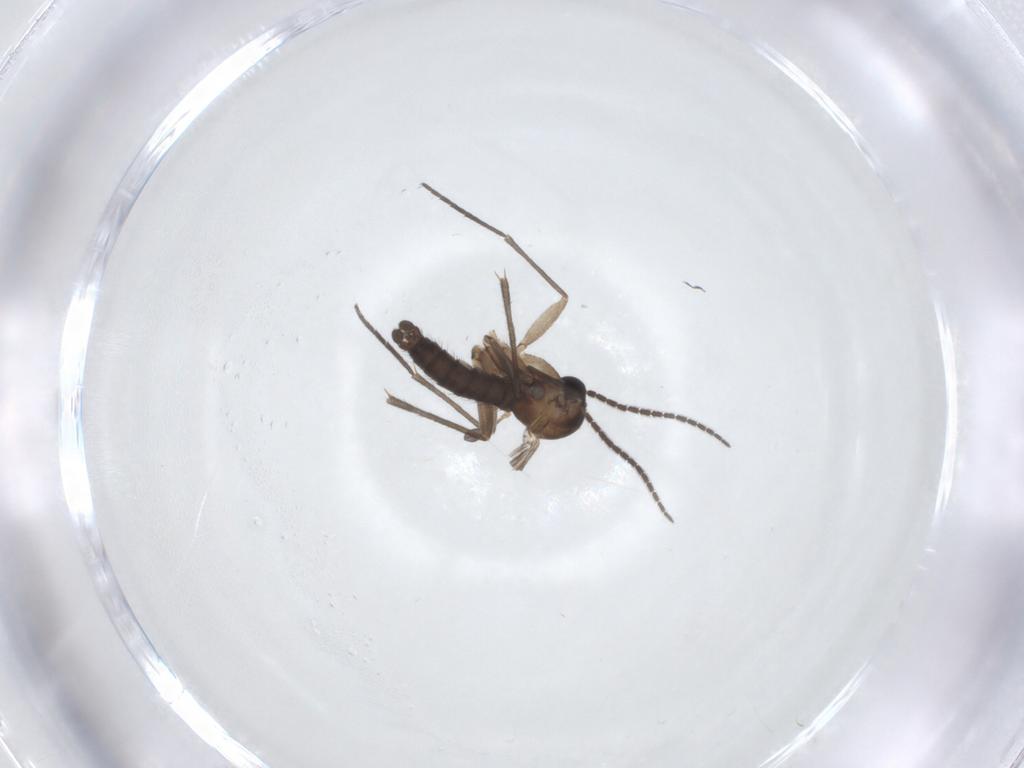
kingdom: Animalia
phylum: Arthropoda
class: Insecta
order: Diptera
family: Sciaridae
